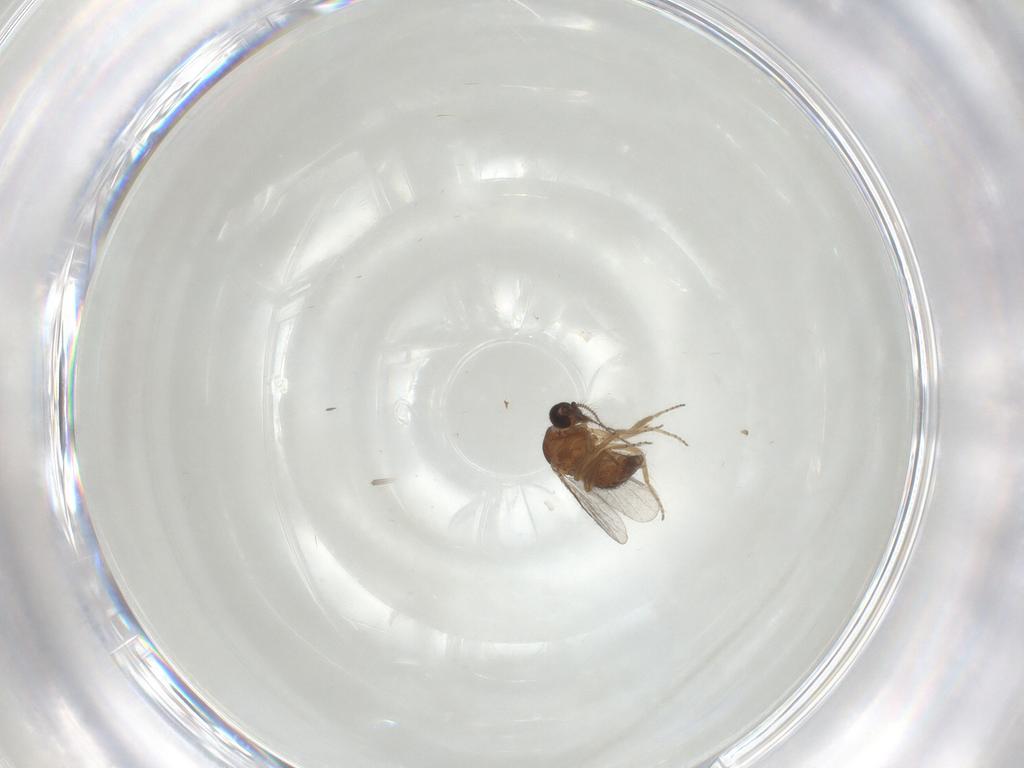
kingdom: Animalia
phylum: Arthropoda
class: Insecta
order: Diptera
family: Ceratopogonidae
